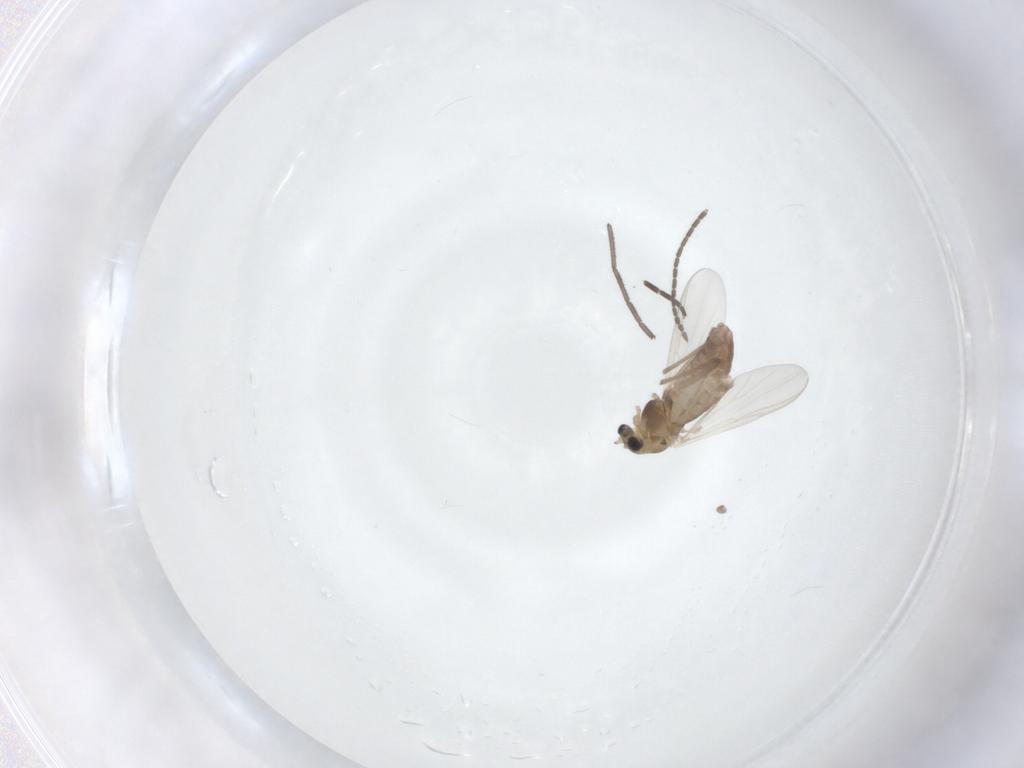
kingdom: Animalia
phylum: Arthropoda
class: Insecta
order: Diptera
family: Chironomidae
